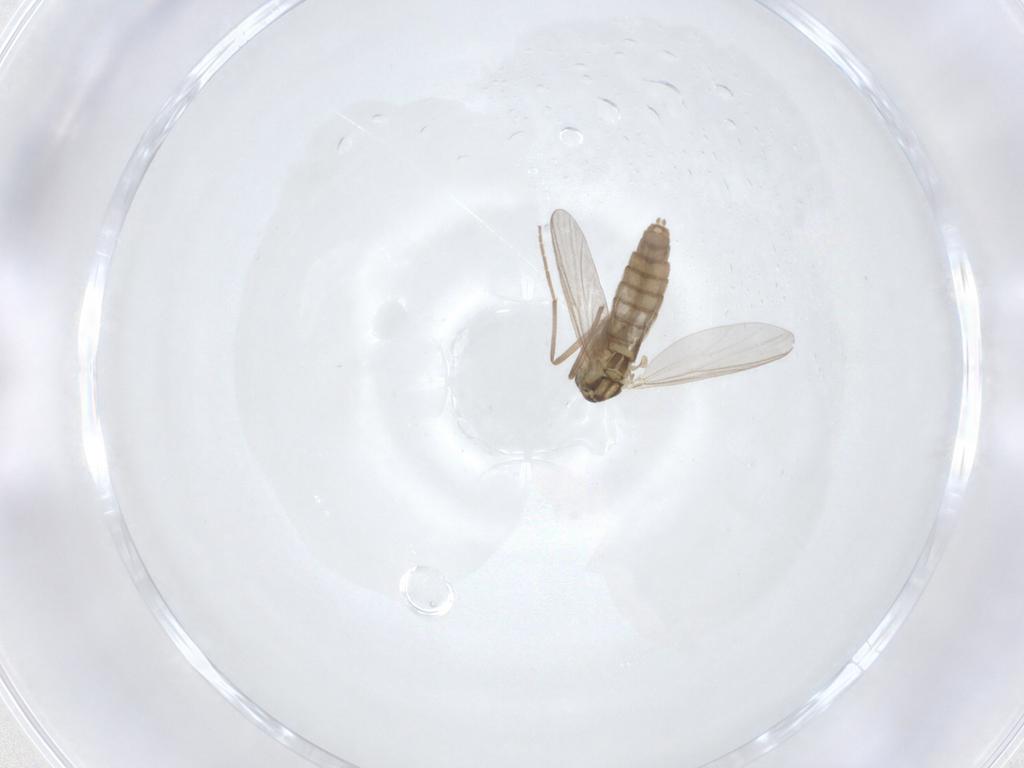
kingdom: Animalia
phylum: Arthropoda
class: Insecta
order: Diptera
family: Chironomidae
